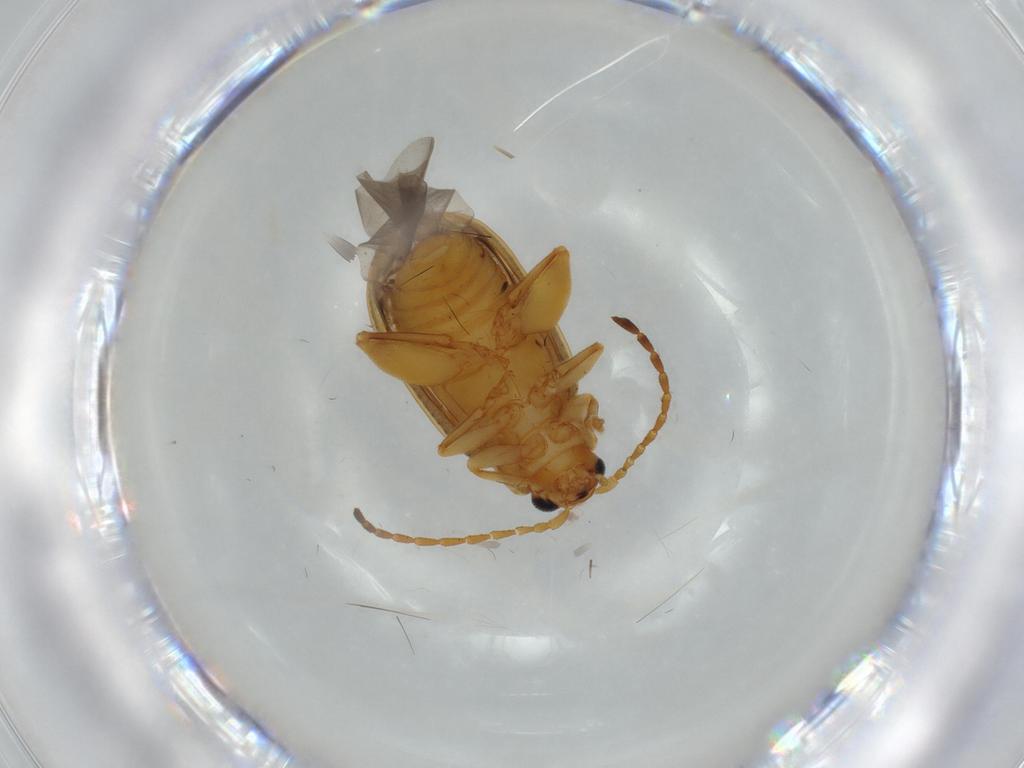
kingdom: Animalia
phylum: Arthropoda
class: Insecta
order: Coleoptera
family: Chrysomelidae
